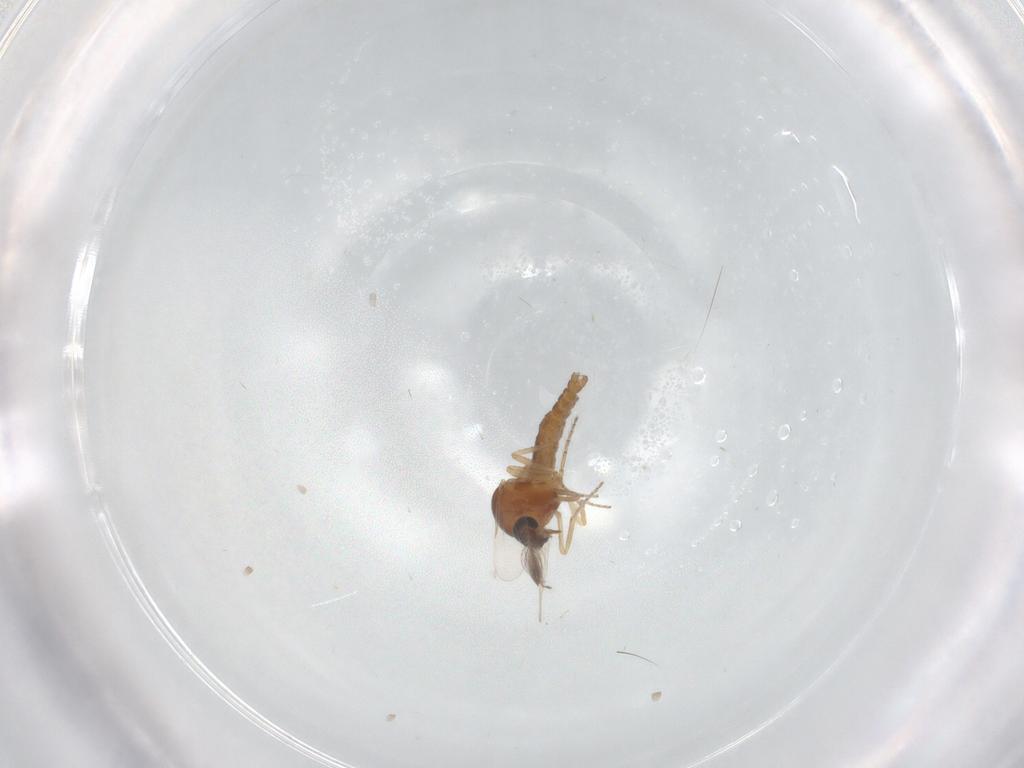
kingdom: Animalia
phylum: Arthropoda
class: Insecta
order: Diptera
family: Ceratopogonidae
